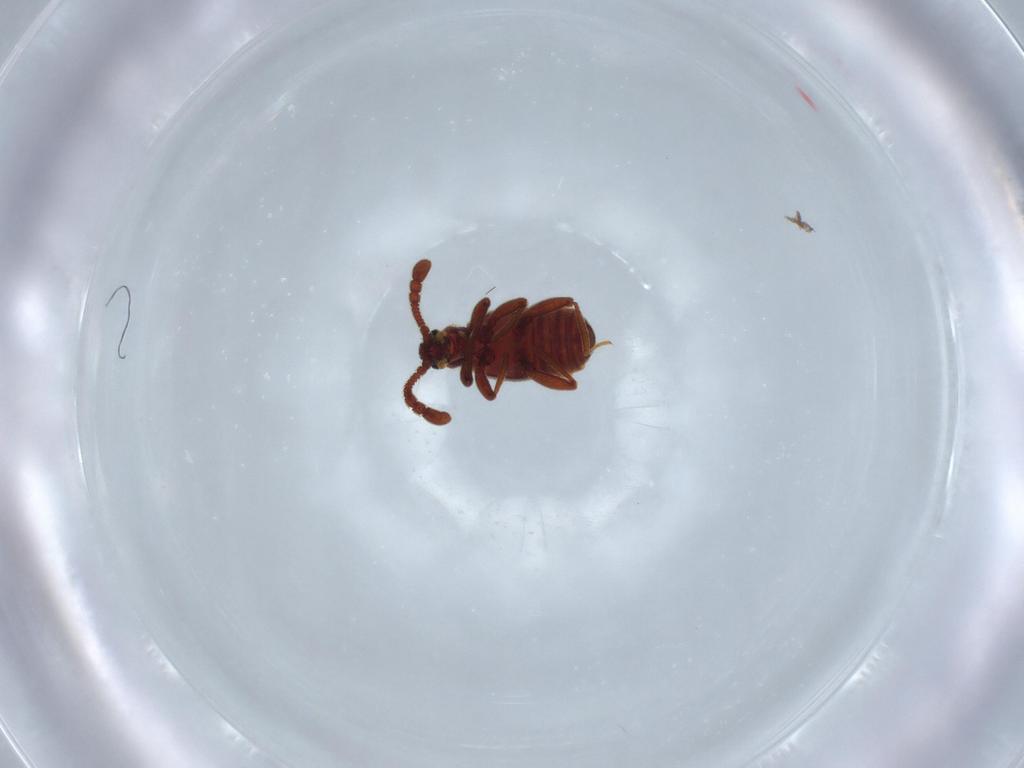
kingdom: Animalia
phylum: Arthropoda
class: Insecta
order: Coleoptera
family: Staphylinidae
